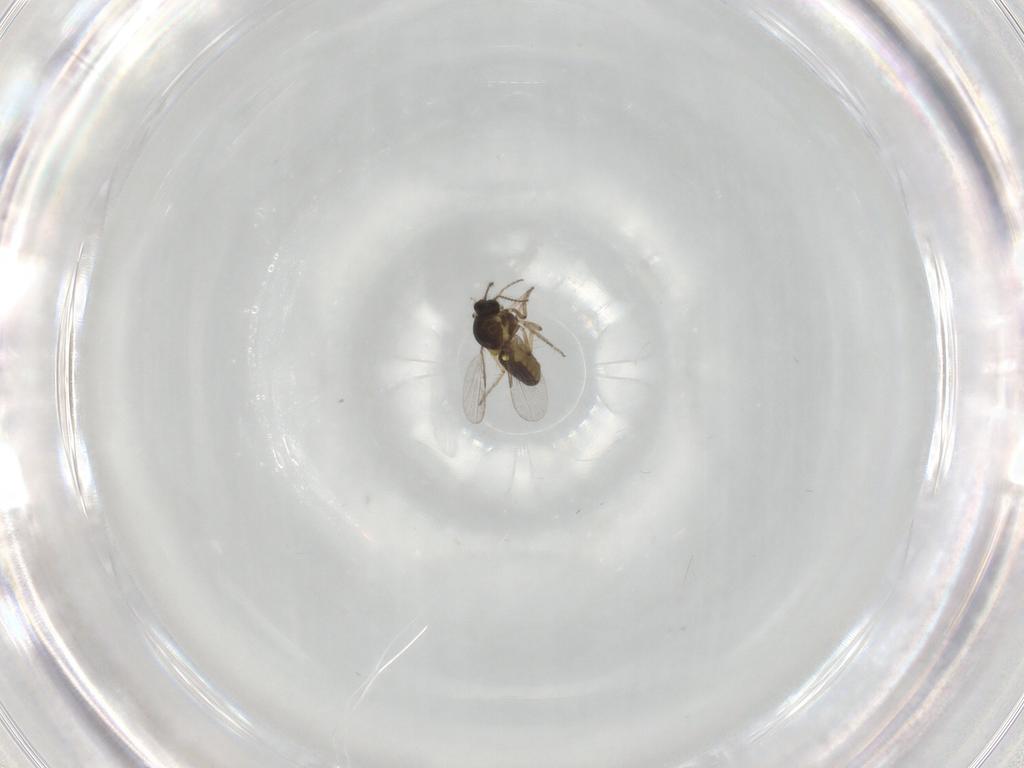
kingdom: Animalia
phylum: Arthropoda
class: Insecta
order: Diptera
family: Ceratopogonidae
